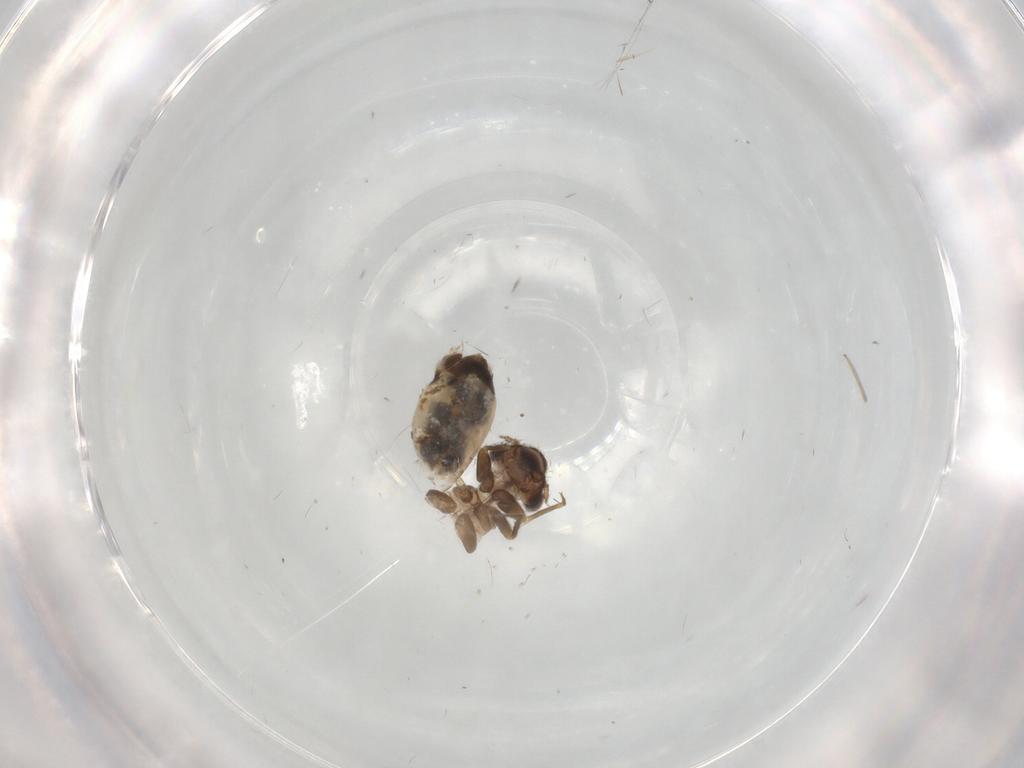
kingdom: Animalia
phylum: Arthropoda
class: Insecta
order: Psocodea
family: Lepidopsocidae
